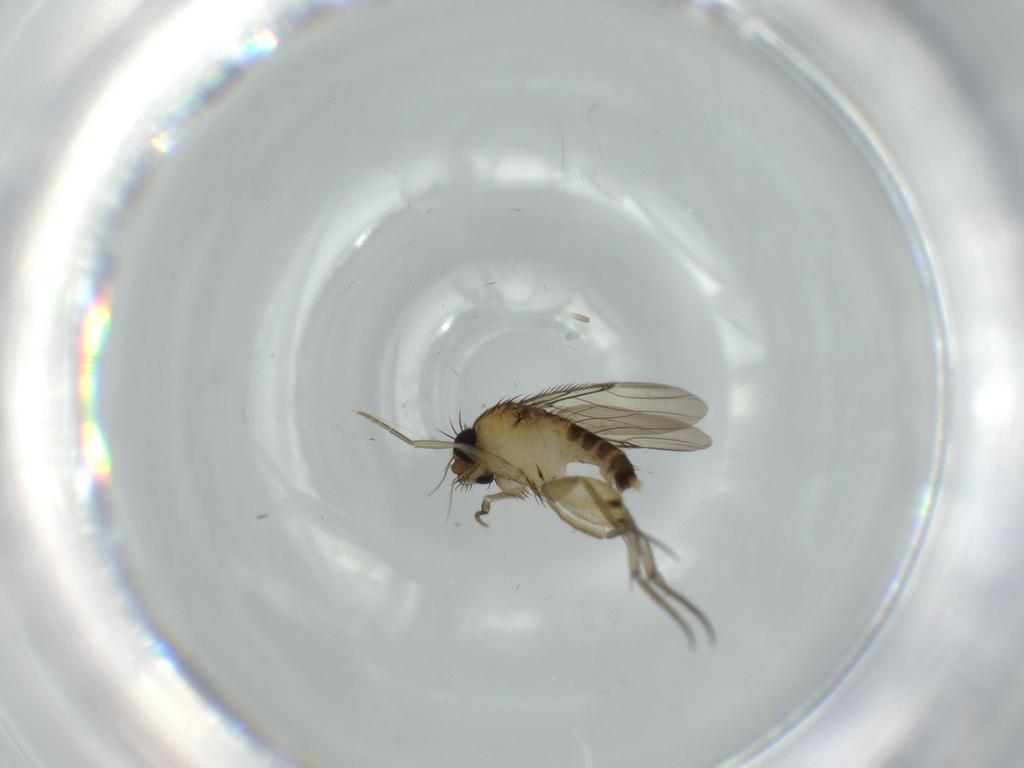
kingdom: Animalia
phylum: Arthropoda
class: Insecta
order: Diptera
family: Phoridae
